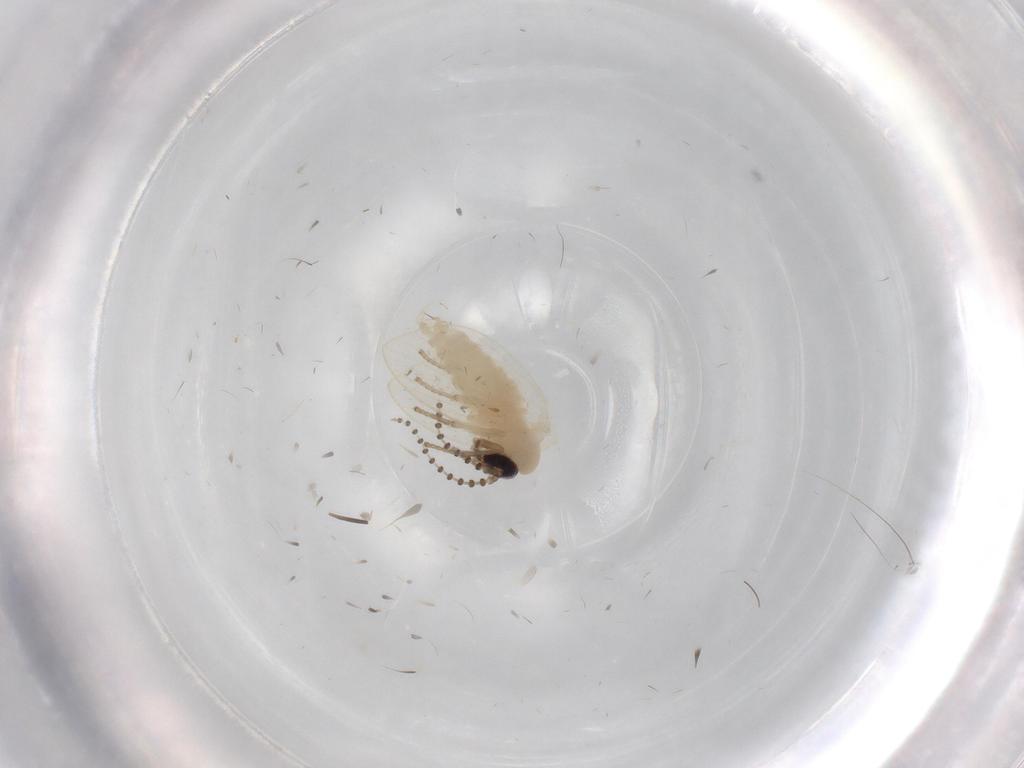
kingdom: Animalia
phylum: Arthropoda
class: Insecta
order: Diptera
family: Psychodidae
